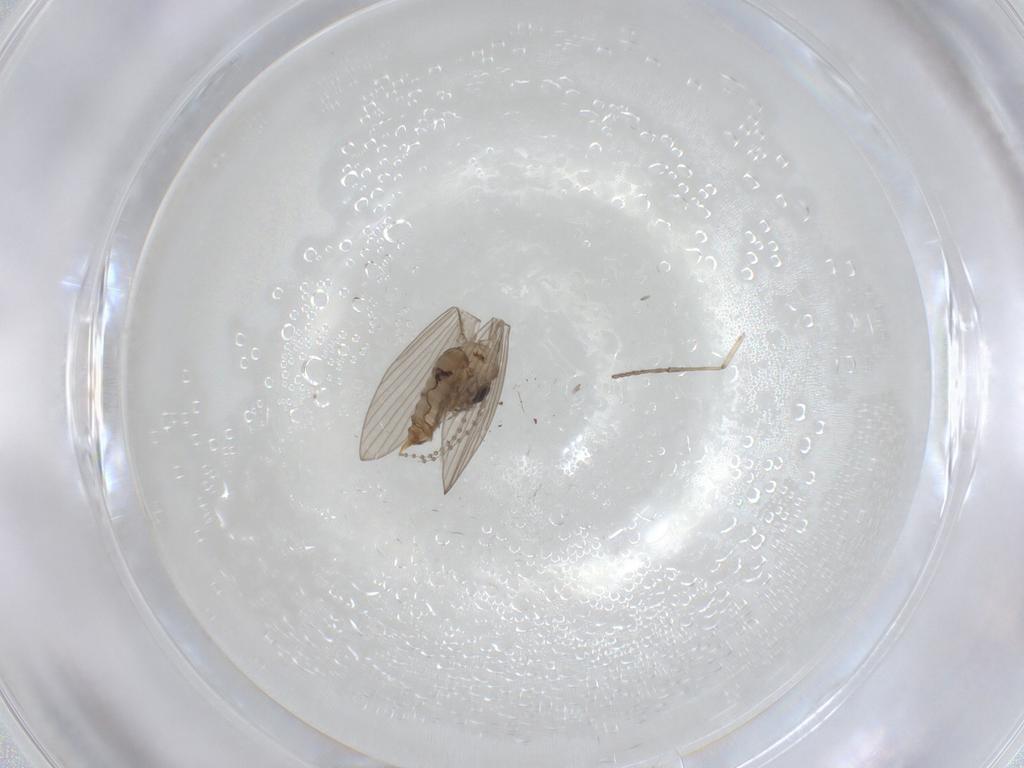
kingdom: Animalia
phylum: Arthropoda
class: Insecta
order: Diptera
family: Psychodidae
